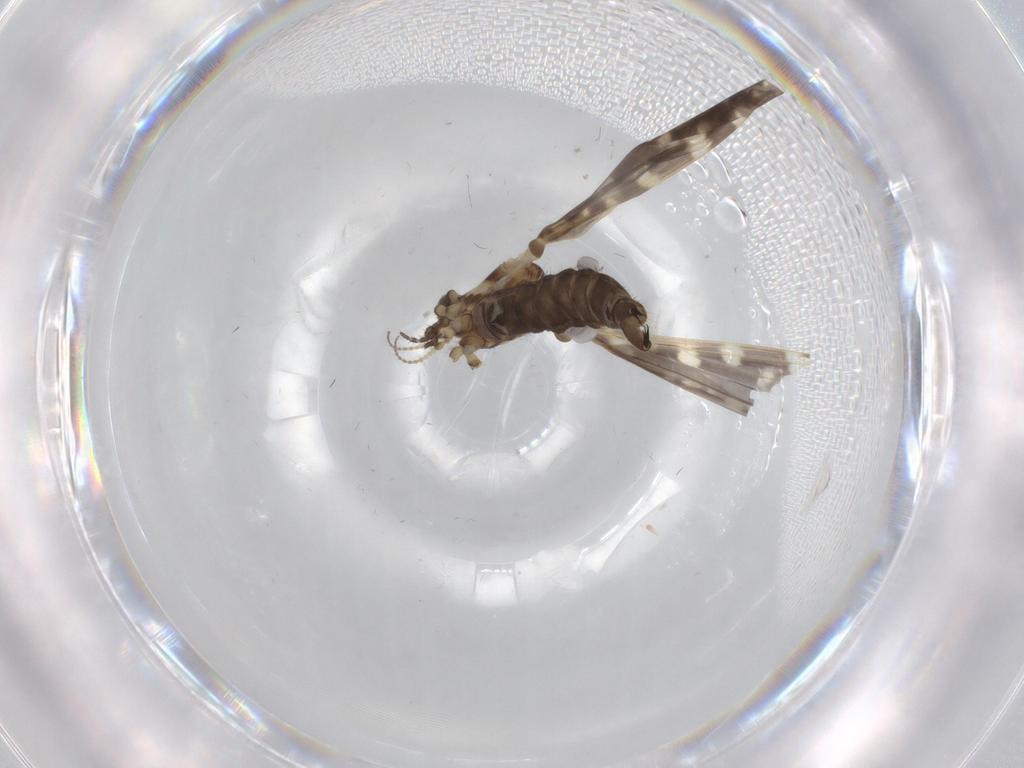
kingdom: Animalia
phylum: Arthropoda
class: Insecta
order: Diptera
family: Limoniidae
